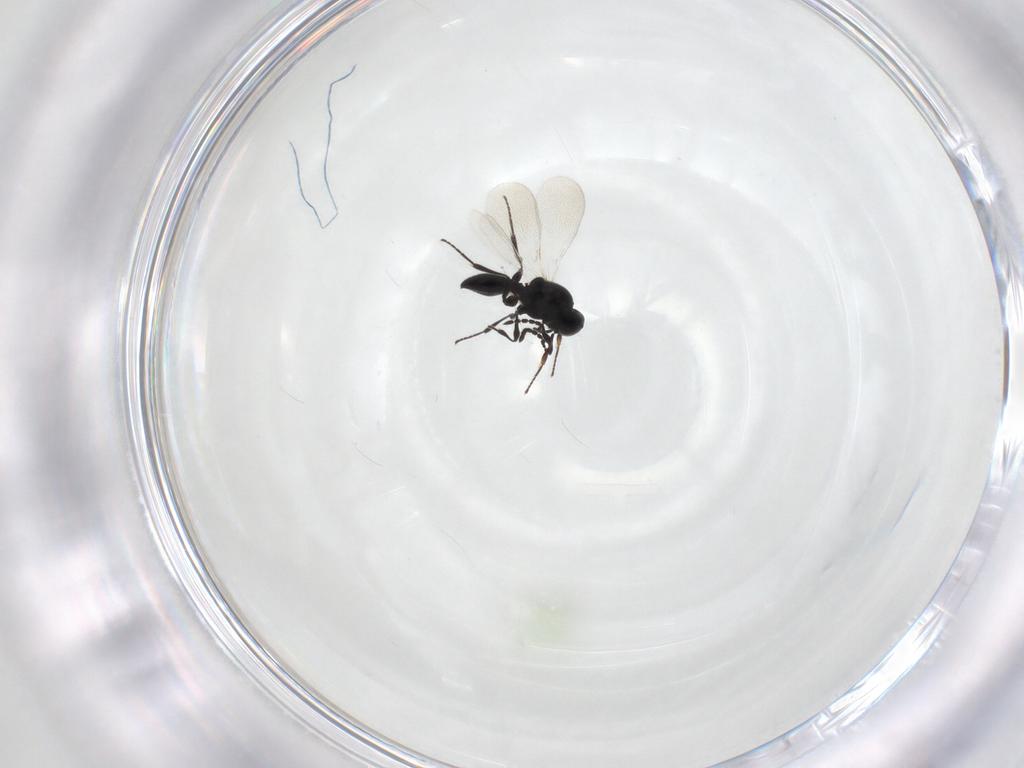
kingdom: Animalia
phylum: Arthropoda
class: Insecta
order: Hymenoptera
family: Platygastridae
